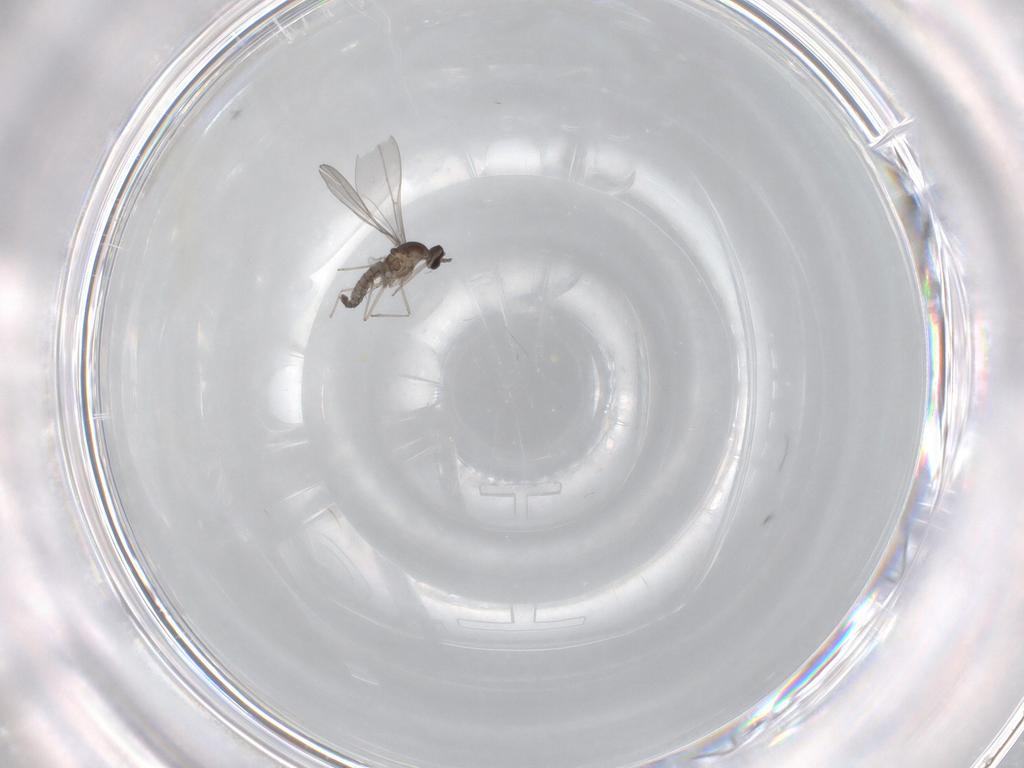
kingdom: Animalia
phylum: Arthropoda
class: Insecta
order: Diptera
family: Cecidomyiidae
